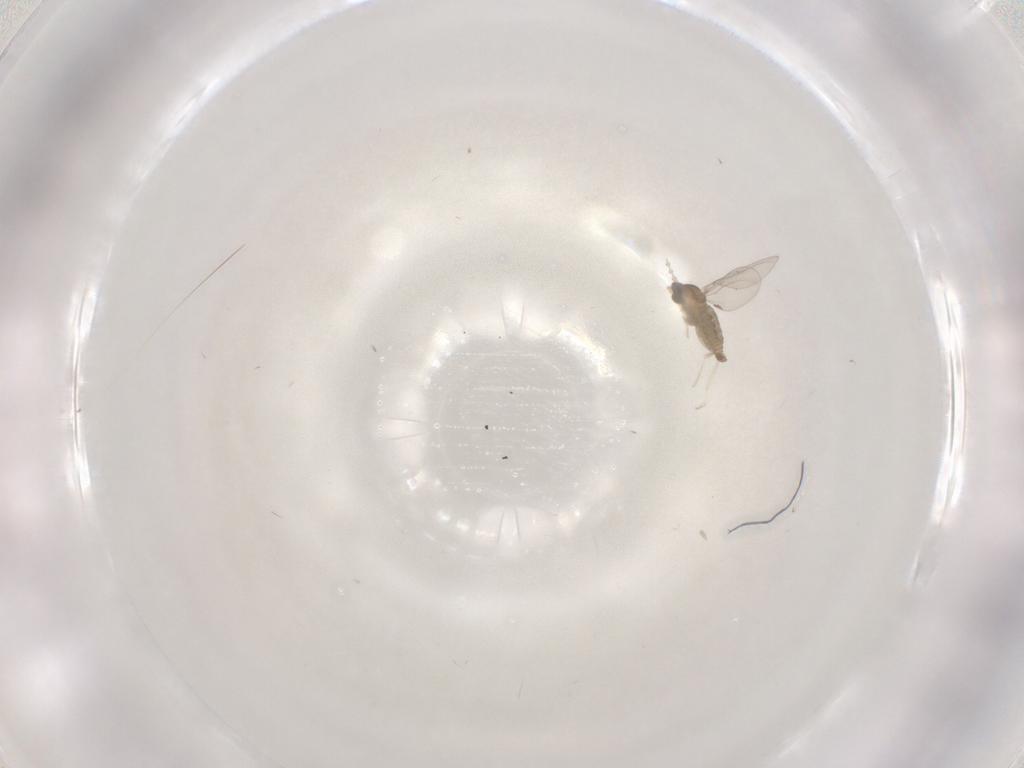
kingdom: Animalia
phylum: Arthropoda
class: Insecta
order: Diptera
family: Cecidomyiidae
